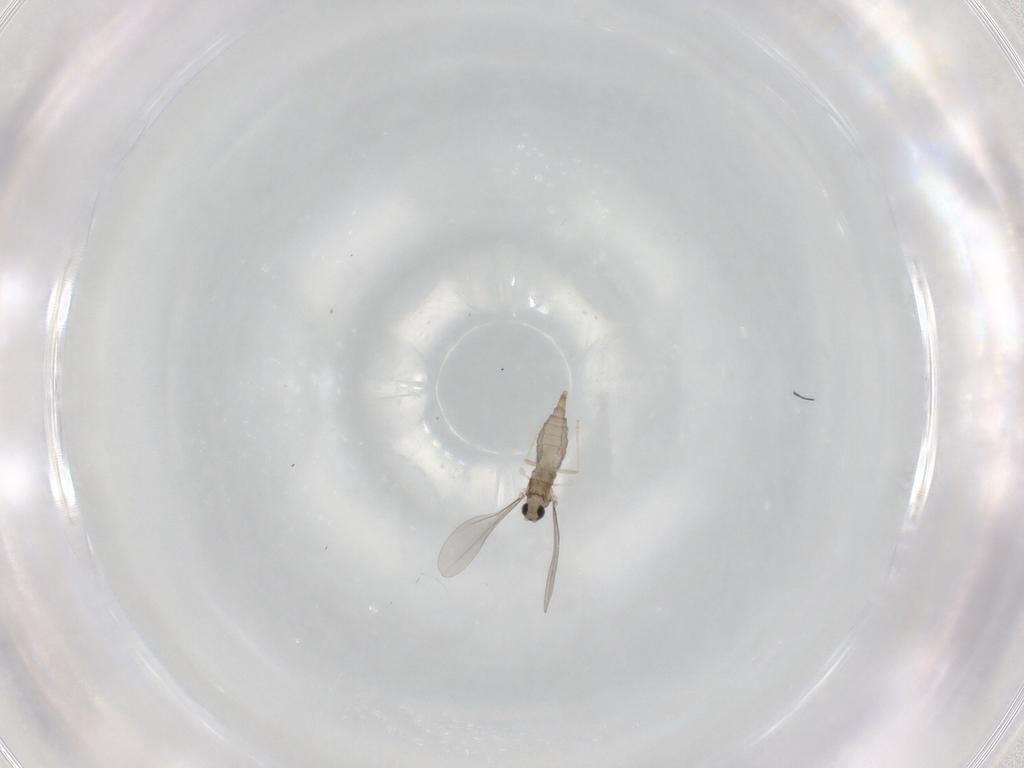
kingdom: Animalia
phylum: Arthropoda
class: Insecta
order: Diptera
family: Cecidomyiidae
